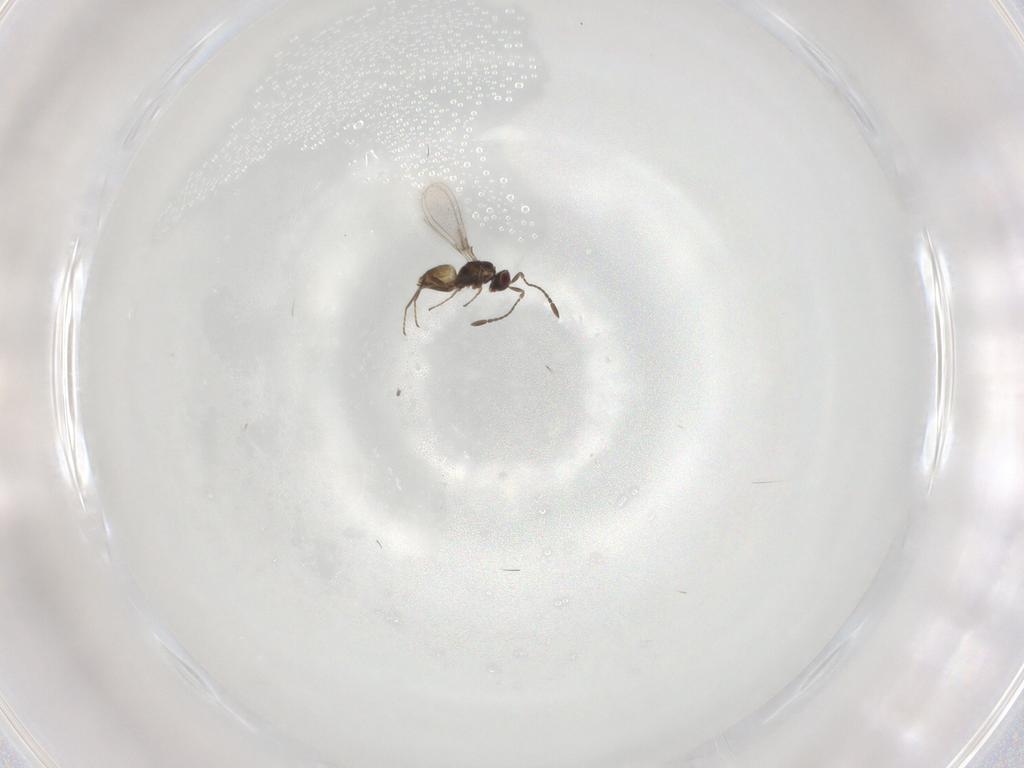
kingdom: Animalia
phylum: Arthropoda
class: Insecta
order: Hymenoptera
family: Mymaridae
